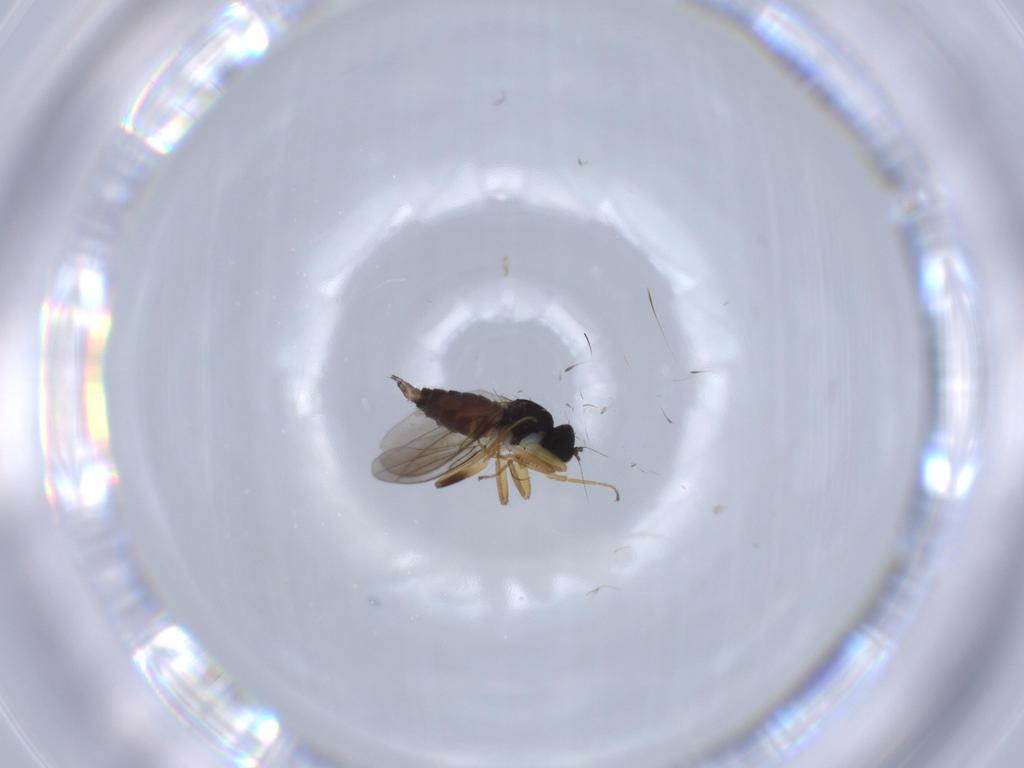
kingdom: Animalia
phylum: Arthropoda
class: Insecta
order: Diptera
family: Hybotidae
